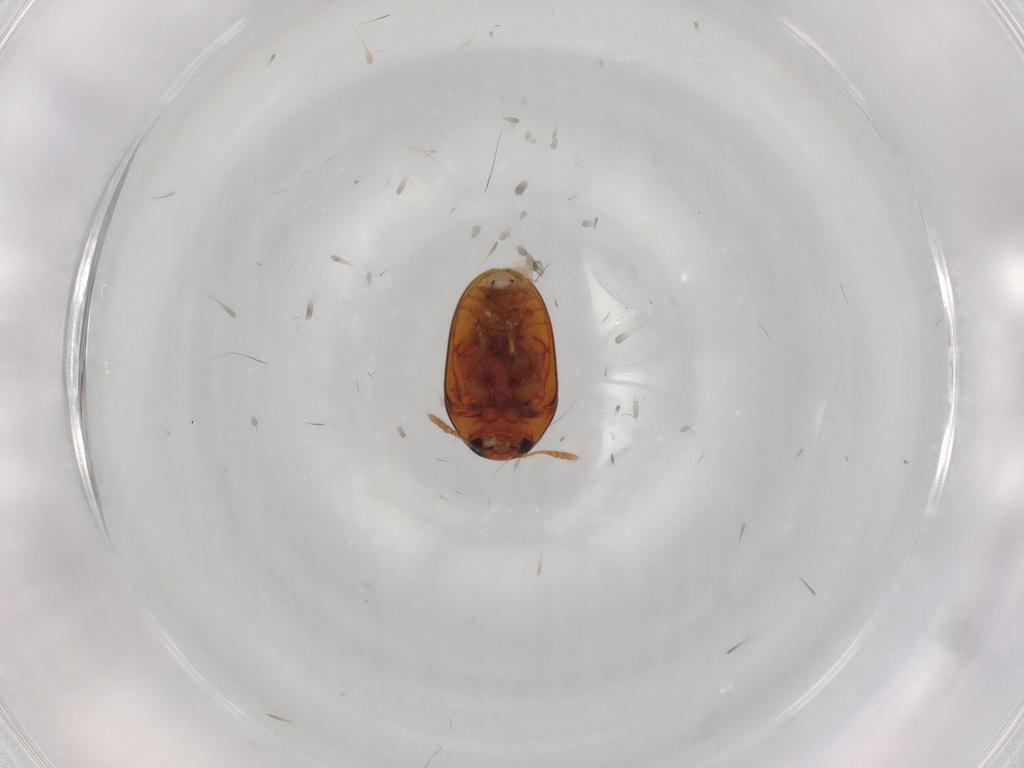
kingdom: Animalia
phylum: Arthropoda
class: Insecta
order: Coleoptera
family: Phalacridae
